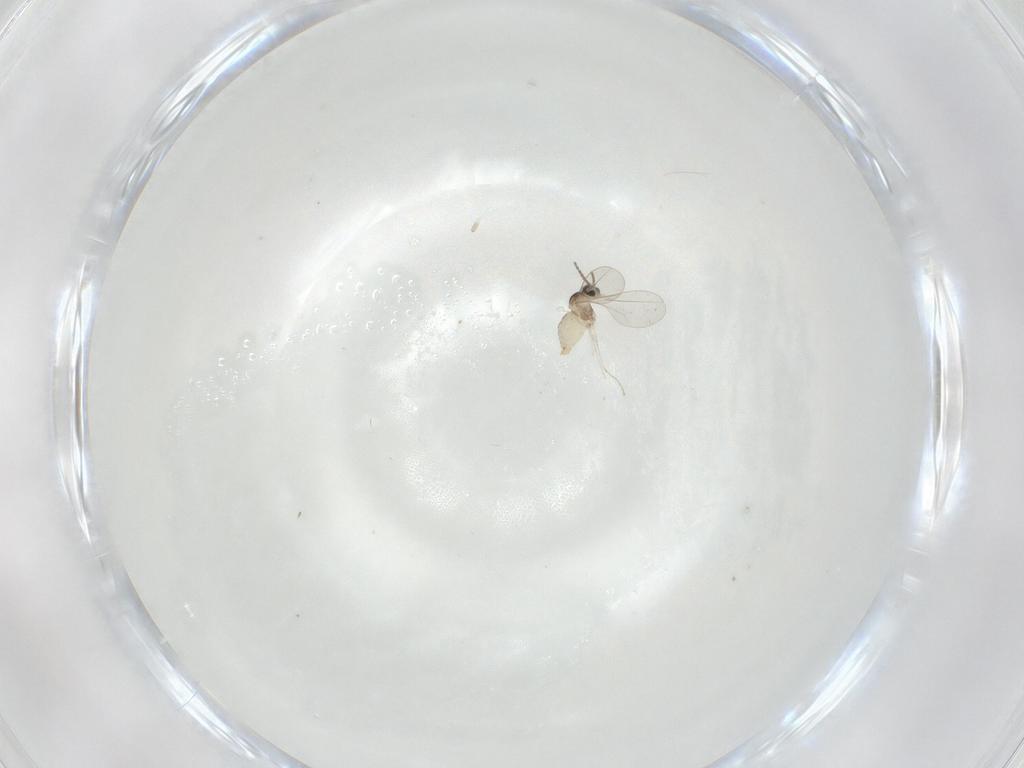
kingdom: Animalia
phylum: Arthropoda
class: Insecta
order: Diptera
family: Cecidomyiidae
